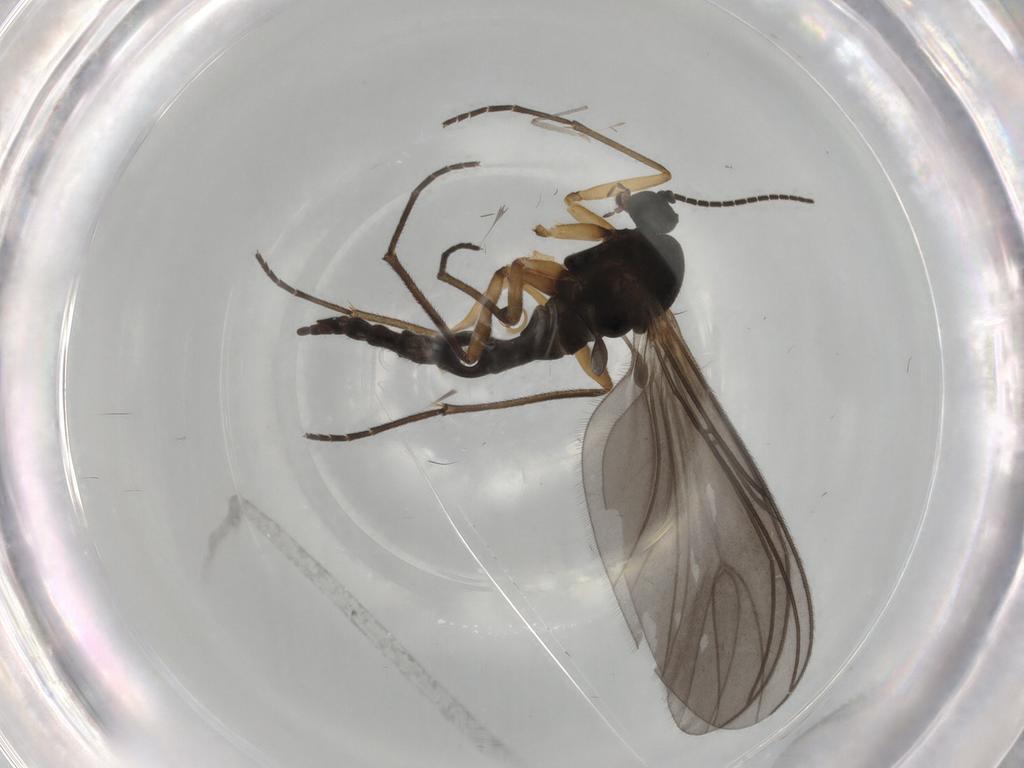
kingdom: Animalia
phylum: Arthropoda
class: Insecta
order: Diptera
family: Sciaridae
